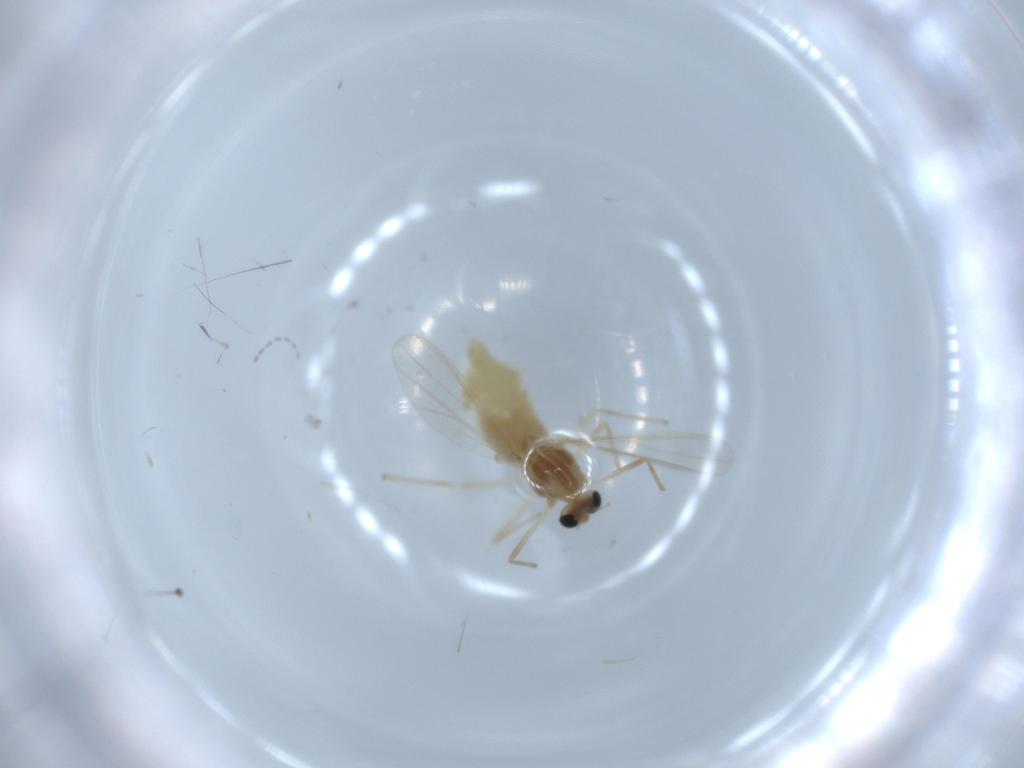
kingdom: Animalia
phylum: Arthropoda
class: Insecta
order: Diptera
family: Chironomidae
